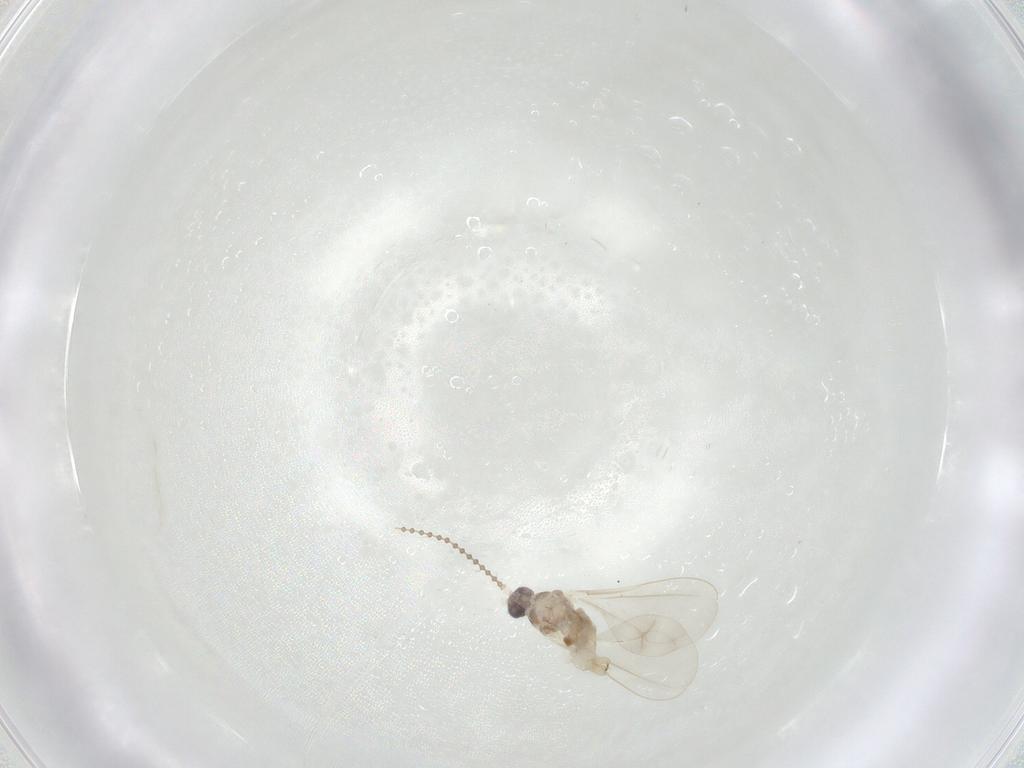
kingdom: Animalia
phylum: Arthropoda
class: Insecta
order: Diptera
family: Cecidomyiidae
